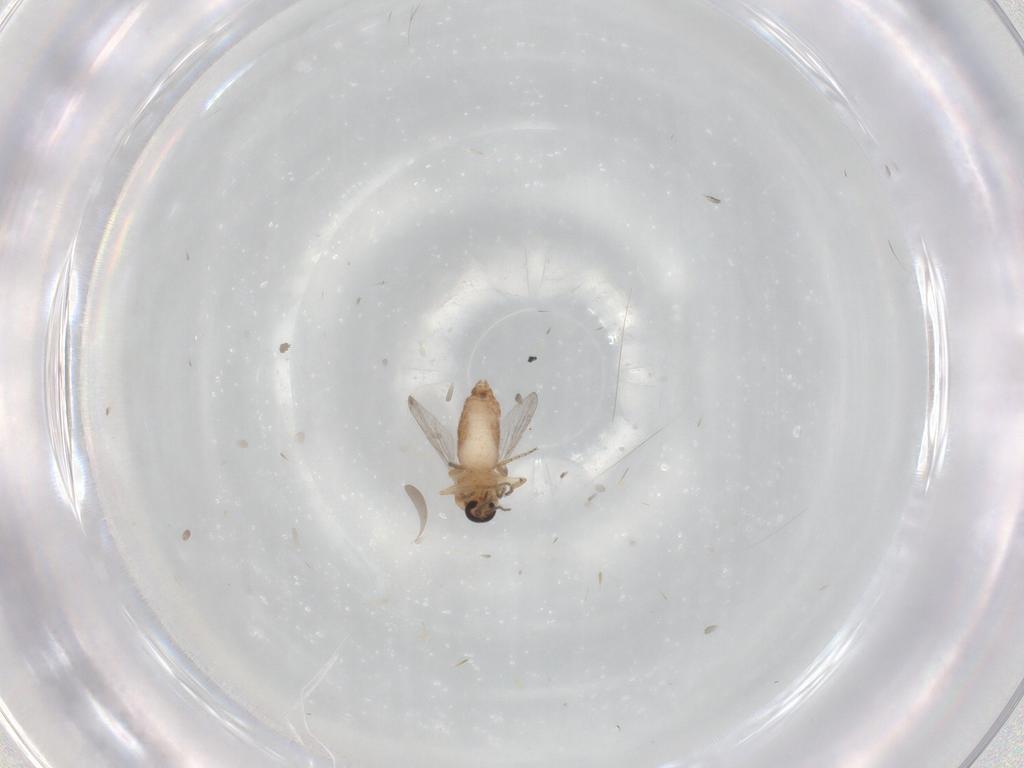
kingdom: Animalia
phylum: Arthropoda
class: Insecta
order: Diptera
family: Ceratopogonidae
